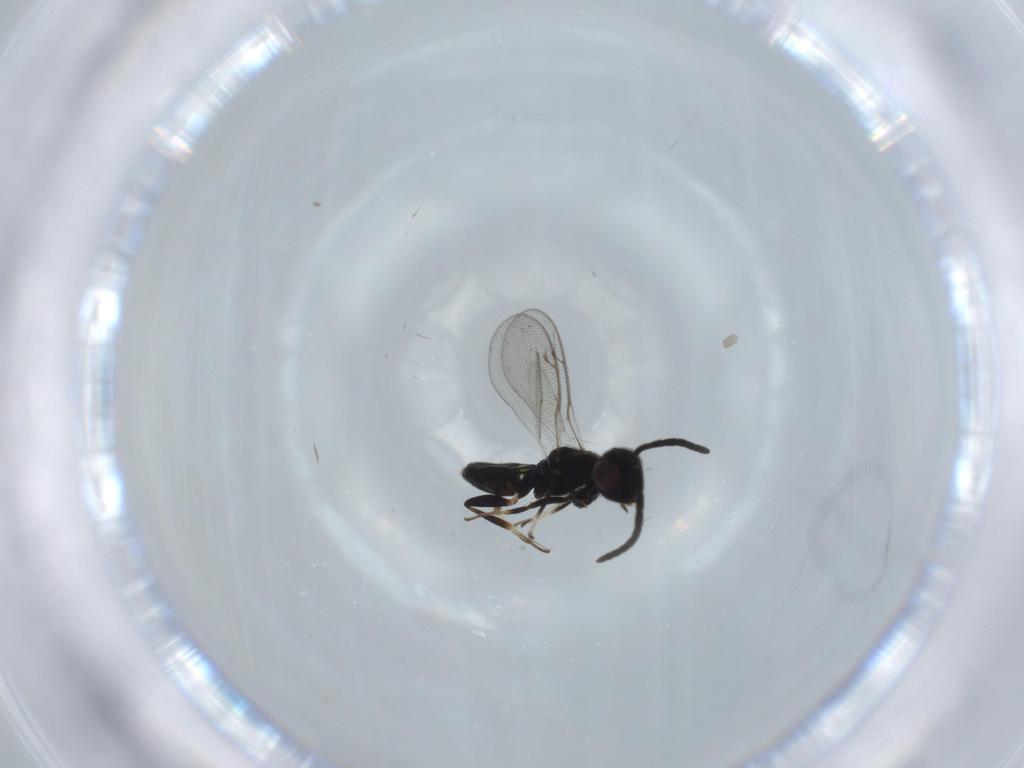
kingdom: Animalia
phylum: Arthropoda
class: Insecta
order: Hymenoptera
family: Eupelmidae
